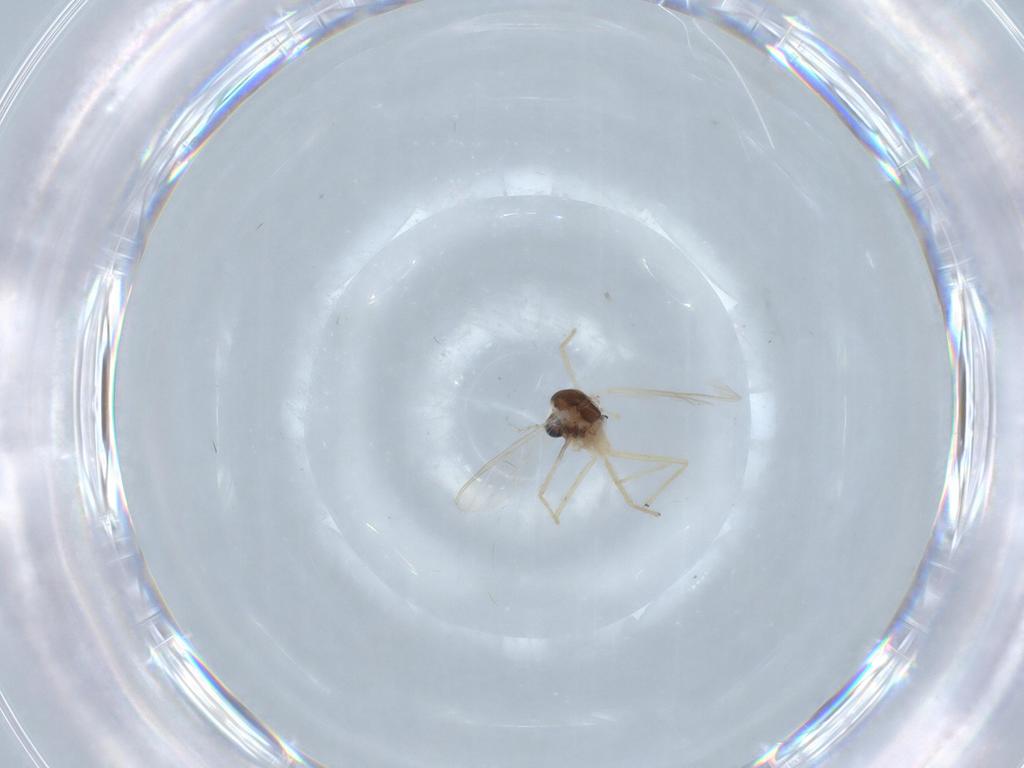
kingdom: Animalia
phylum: Arthropoda
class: Insecta
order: Diptera
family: Chironomidae
